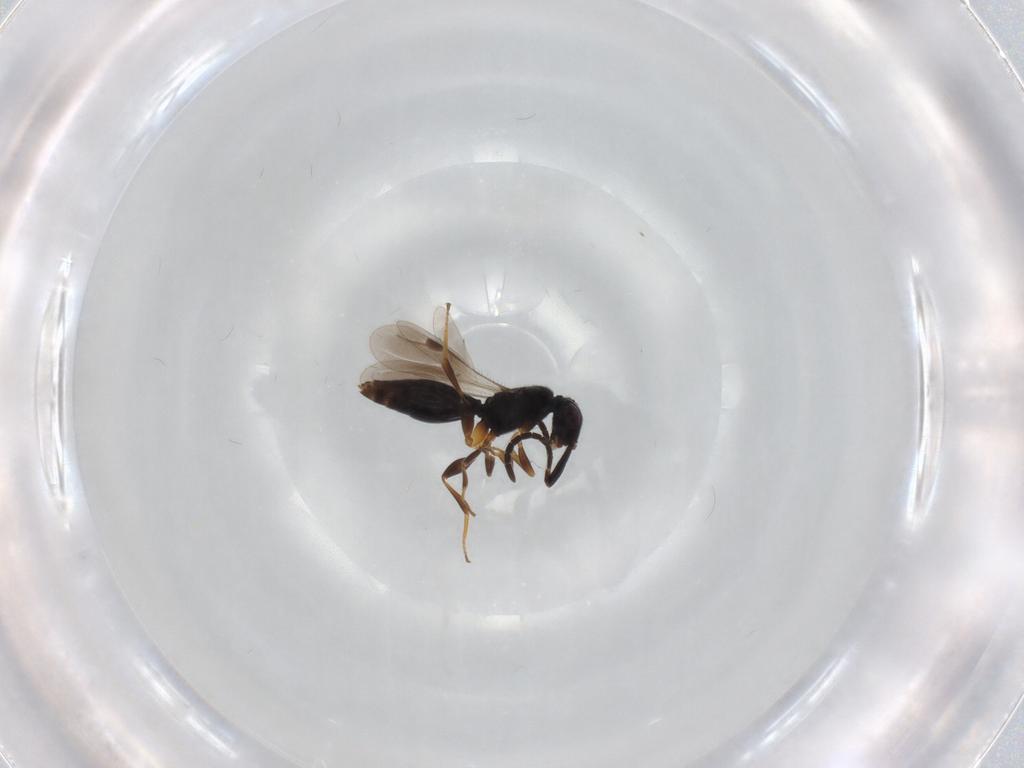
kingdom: Animalia
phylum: Arthropoda
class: Insecta
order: Hymenoptera
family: Megaspilidae
